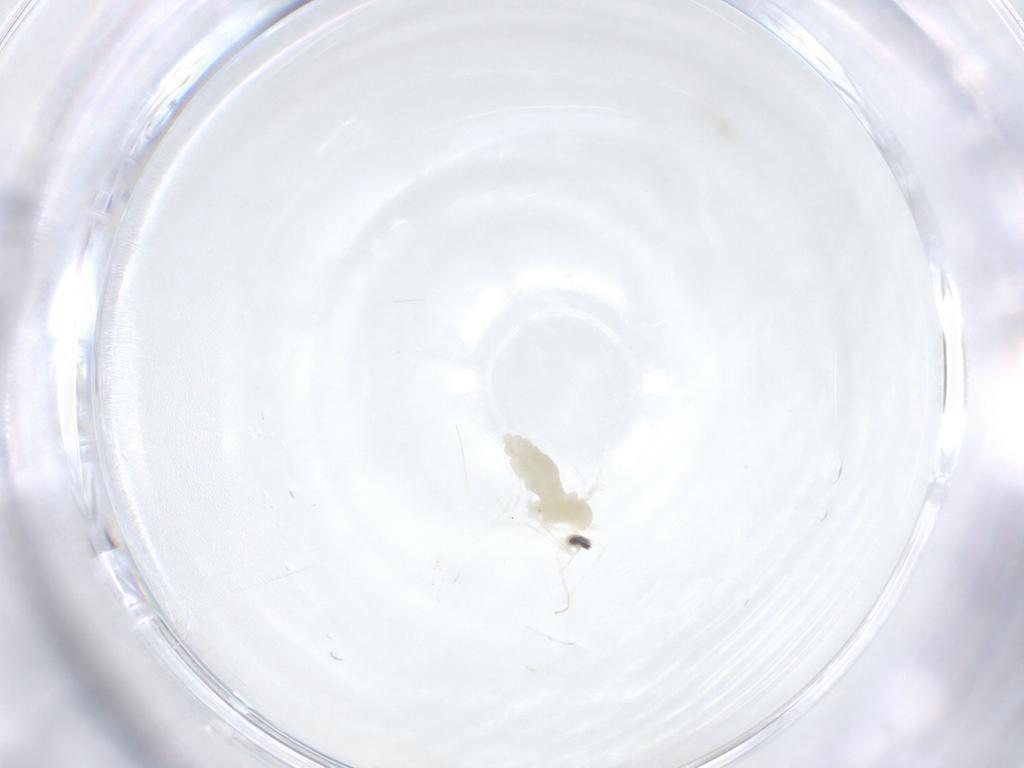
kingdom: Animalia
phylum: Arthropoda
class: Insecta
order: Diptera
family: Cecidomyiidae
